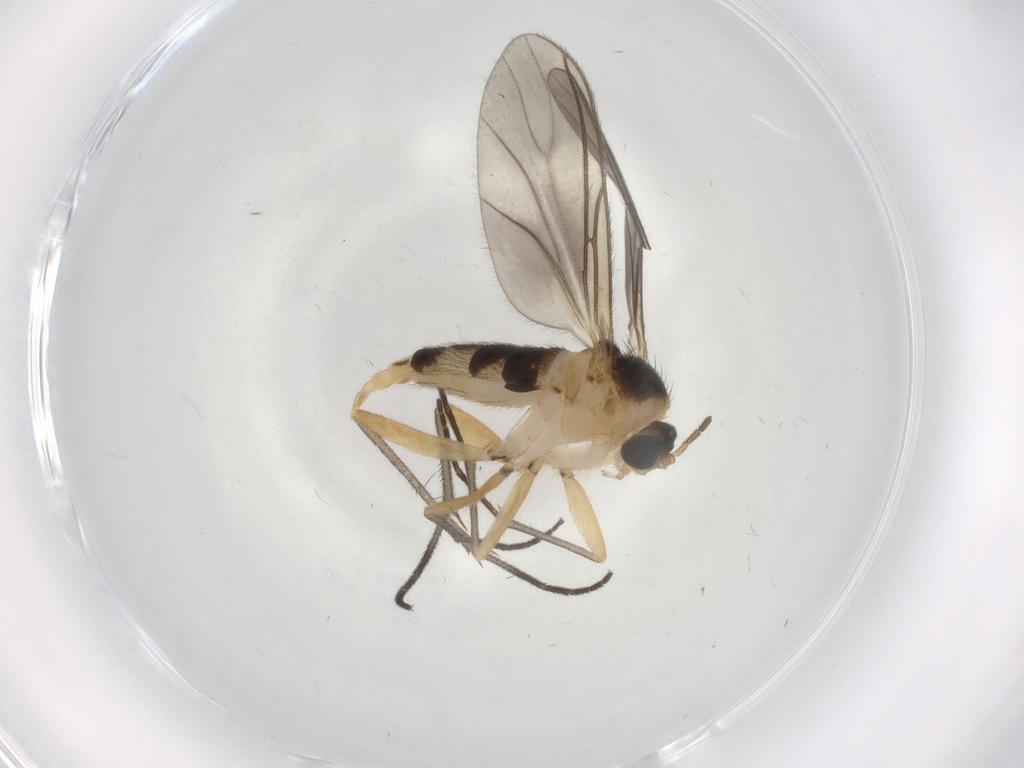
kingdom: Animalia
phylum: Arthropoda
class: Insecta
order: Diptera
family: Sciaridae
